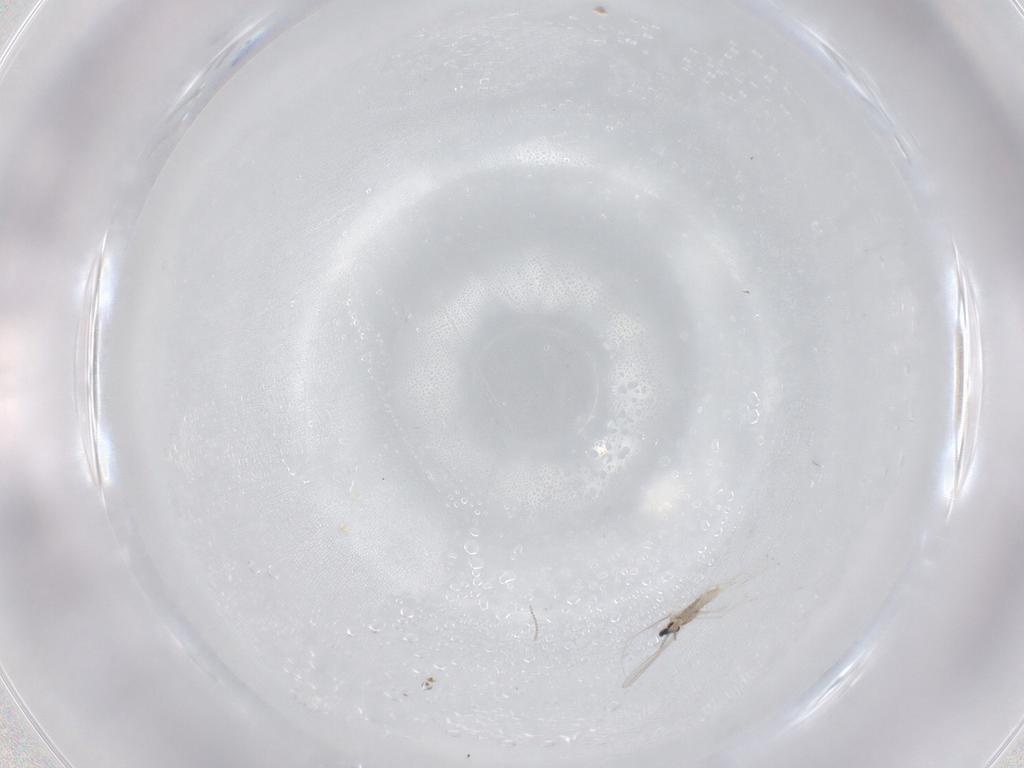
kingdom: Animalia
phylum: Arthropoda
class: Insecta
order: Diptera
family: Cecidomyiidae
